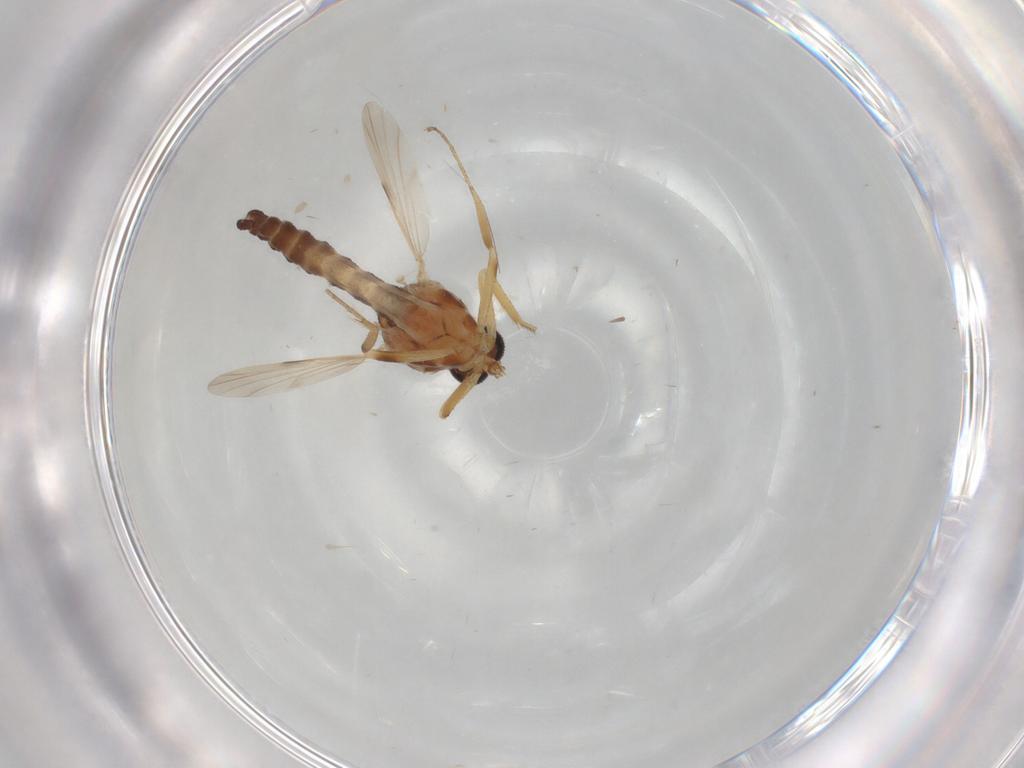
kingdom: Animalia
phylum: Arthropoda
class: Insecta
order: Diptera
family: Ceratopogonidae
